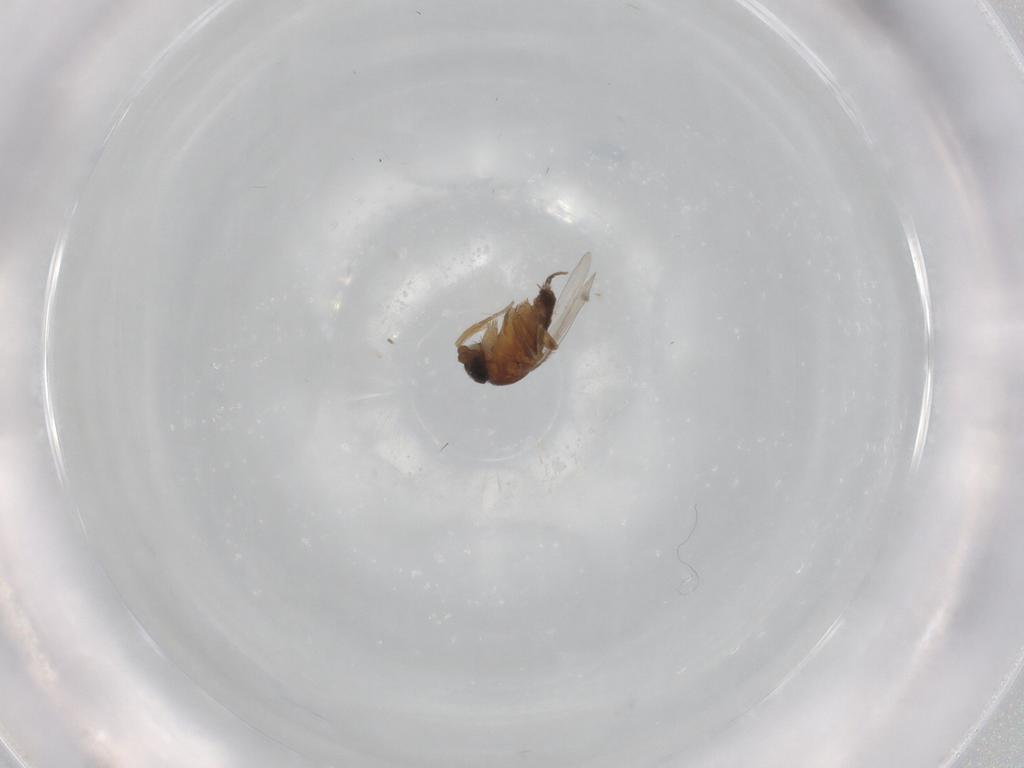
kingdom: Animalia
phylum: Arthropoda
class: Insecta
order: Diptera
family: Phoridae
